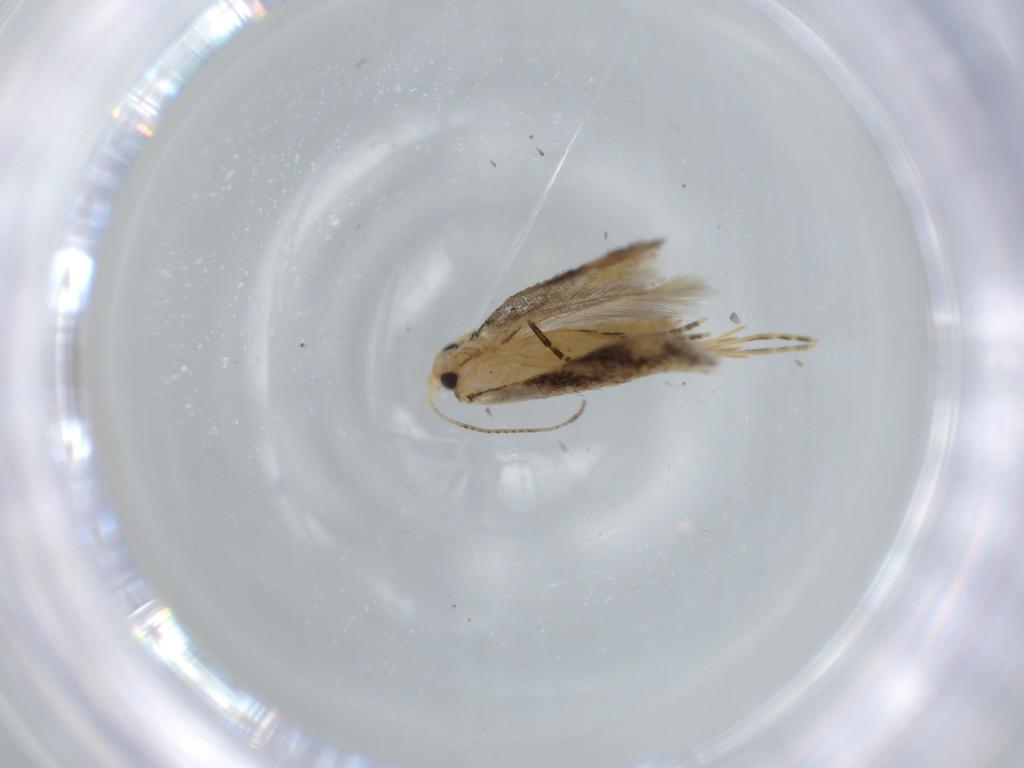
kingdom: Animalia
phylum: Arthropoda
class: Insecta
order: Lepidoptera
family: Bucculatricidae
